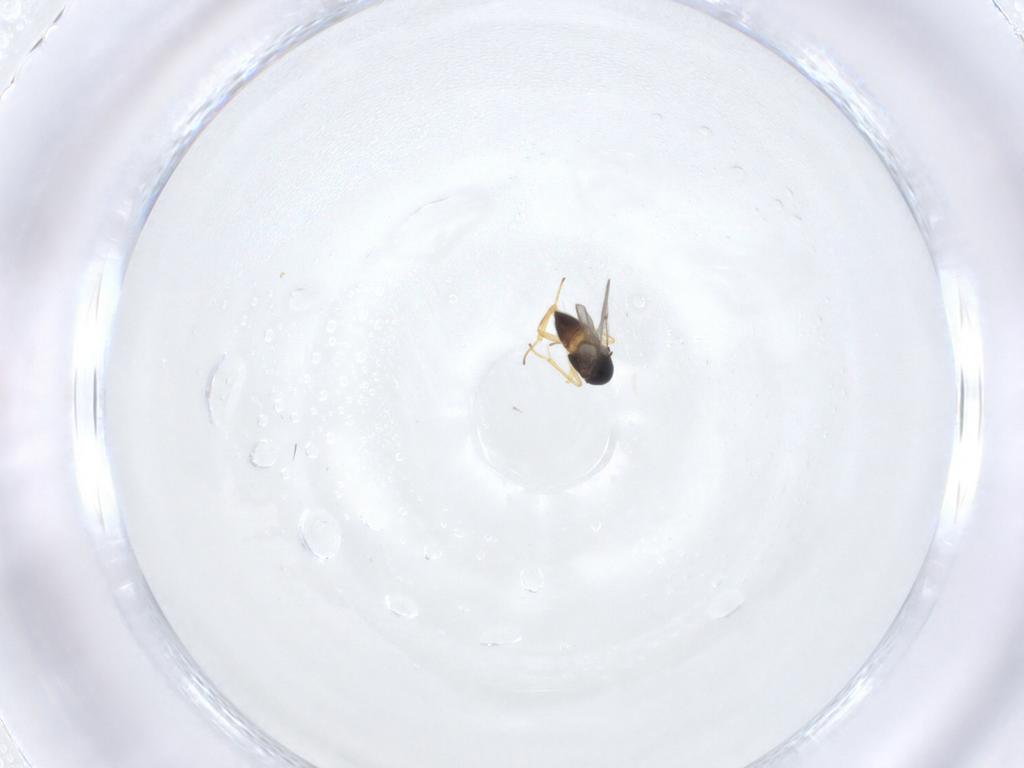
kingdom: Animalia
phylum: Arthropoda
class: Insecta
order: Hymenoptera
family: Encyrtidae
